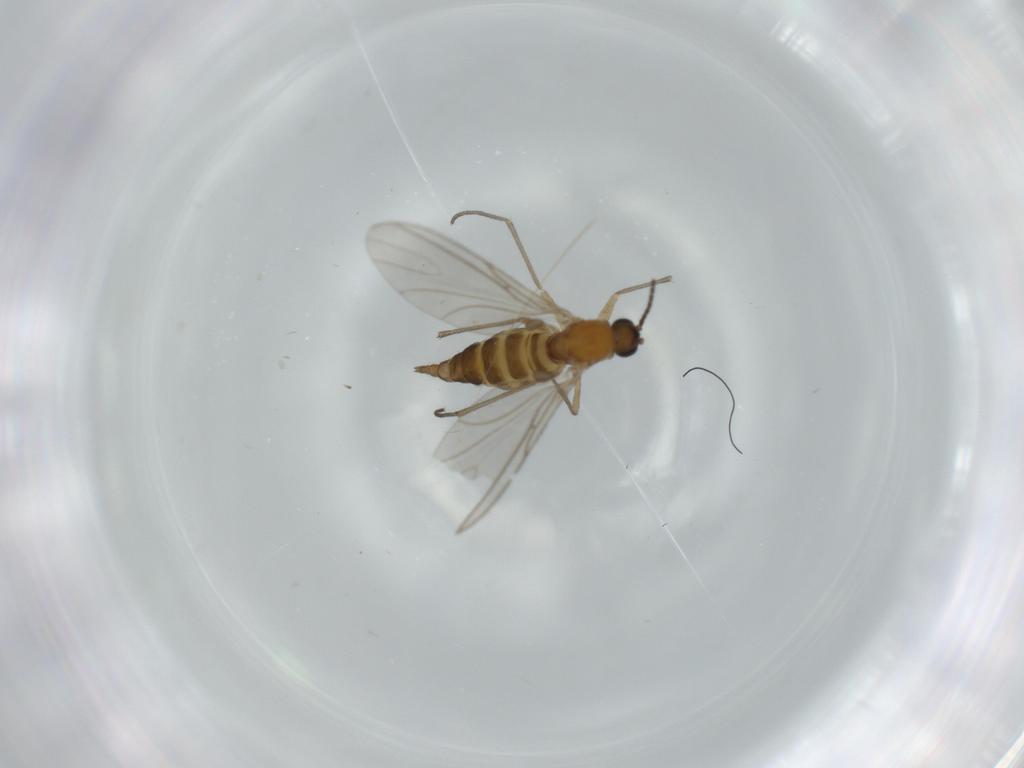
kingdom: Animalia
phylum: Arthropoda
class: Insecta
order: Diptera
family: Sciaridae
